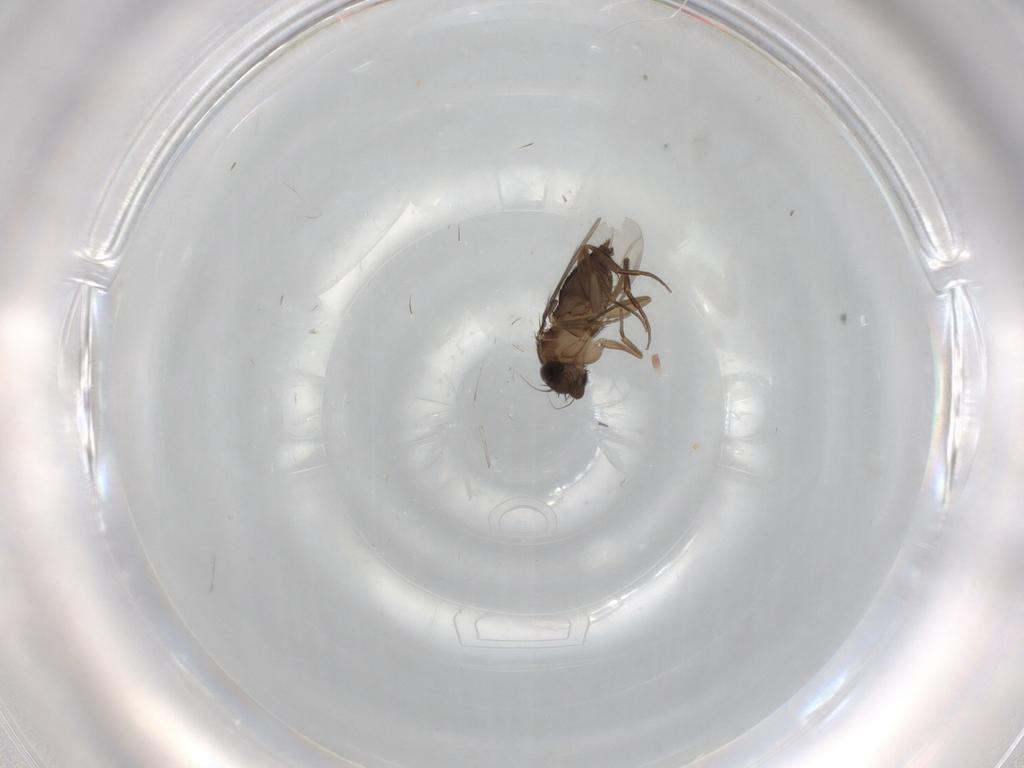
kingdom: Animalia
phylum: Arthropoda
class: Insecta
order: Diptera
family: Phoridae
